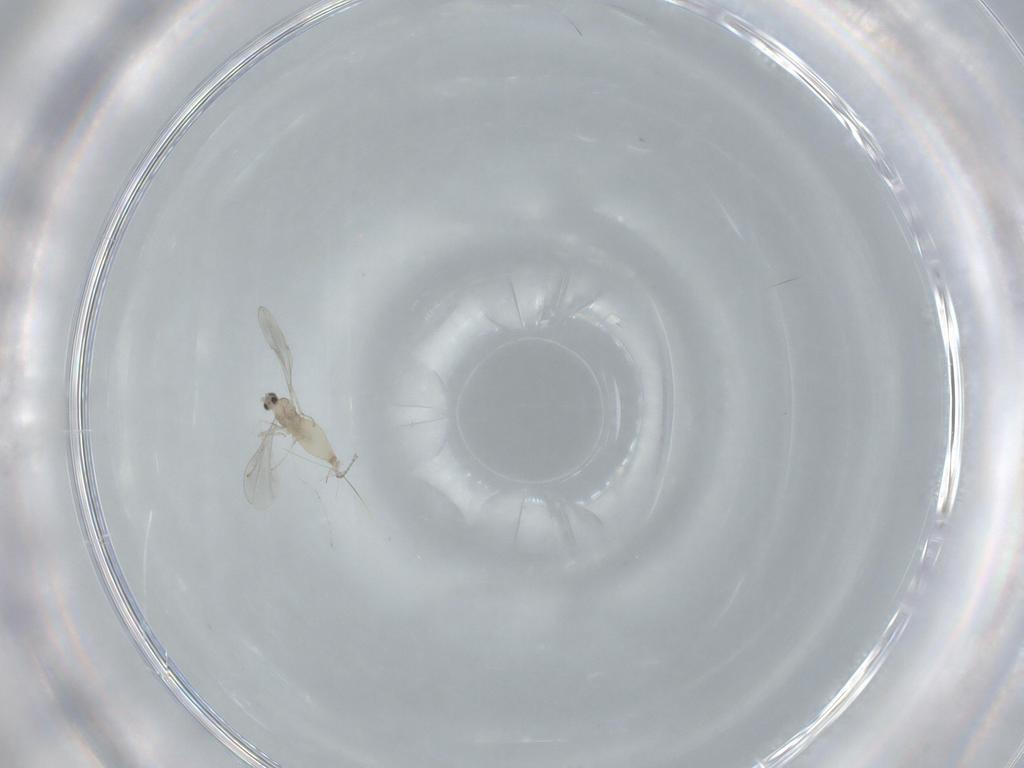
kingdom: Animalia
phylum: Arthropoda
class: Insecta
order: Diptera
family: Cecidomyiidae
